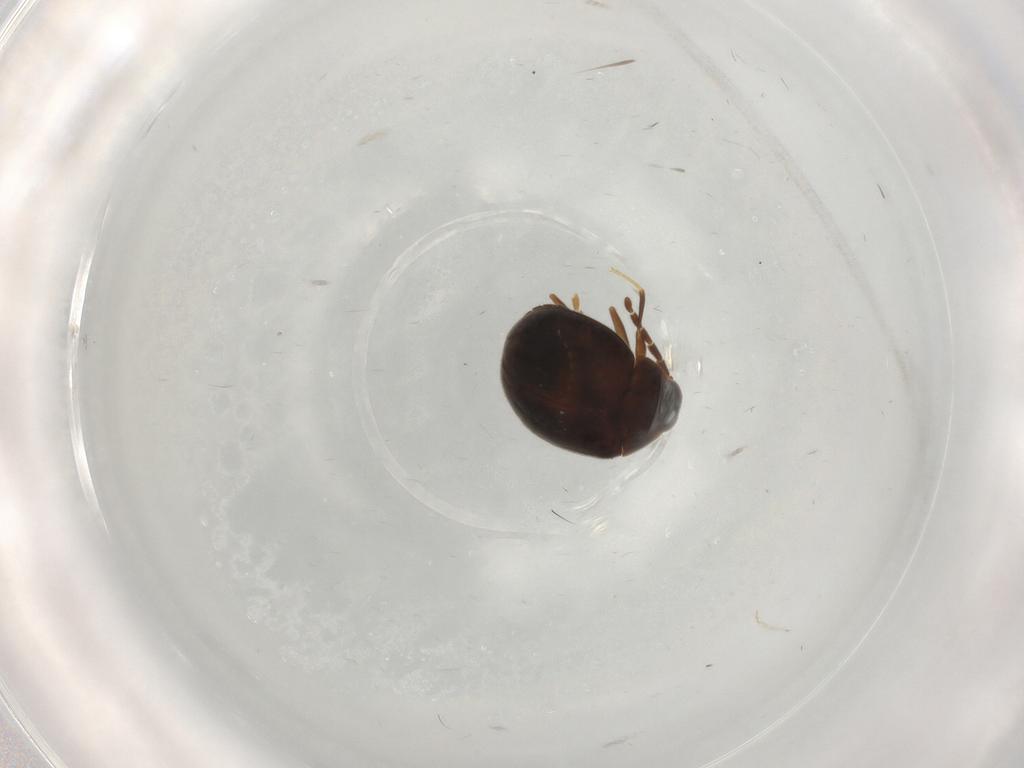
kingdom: Animalia
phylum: Arthropoda
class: Insecta
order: Coleoptera
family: Psephenidae
